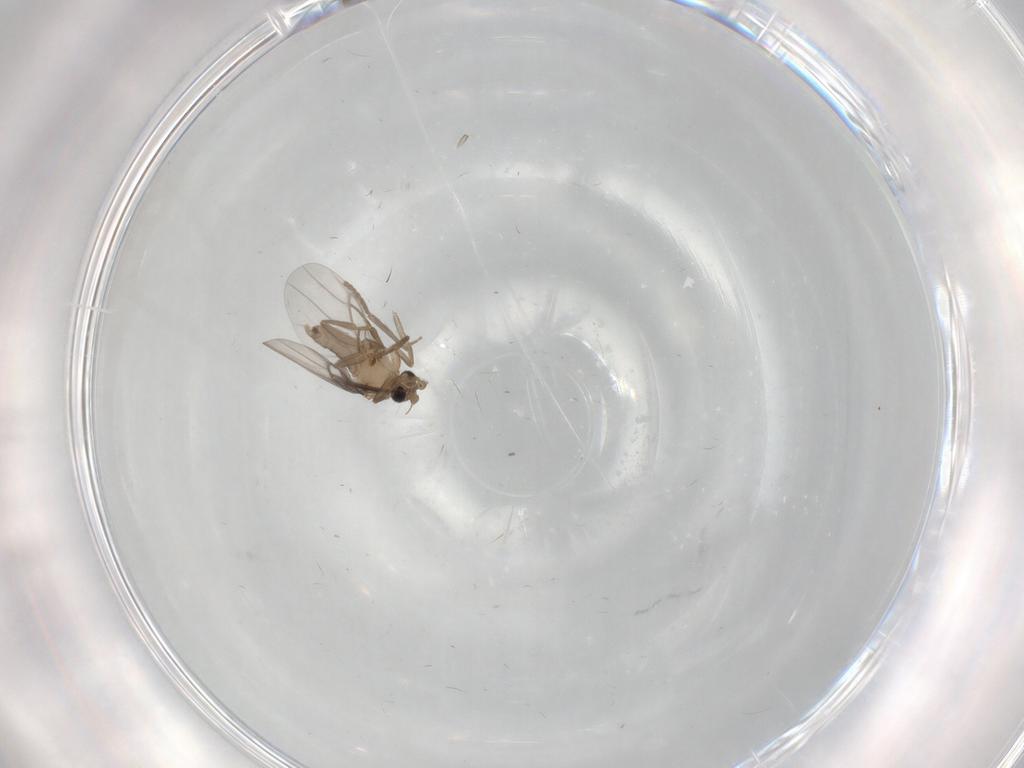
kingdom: Animalia
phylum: Arthropoda
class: Insecta
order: Diptera
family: Chironomidae
